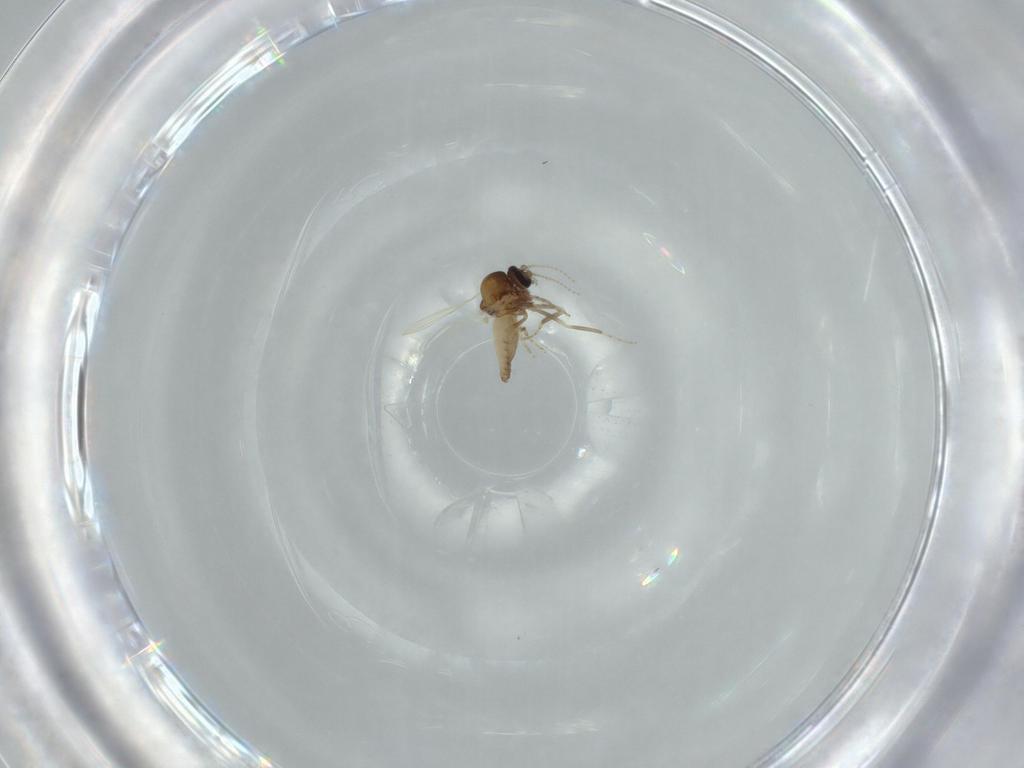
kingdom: Animalia
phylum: Arthropoda
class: Insecta
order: Diptera
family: Ceratopogonidae
